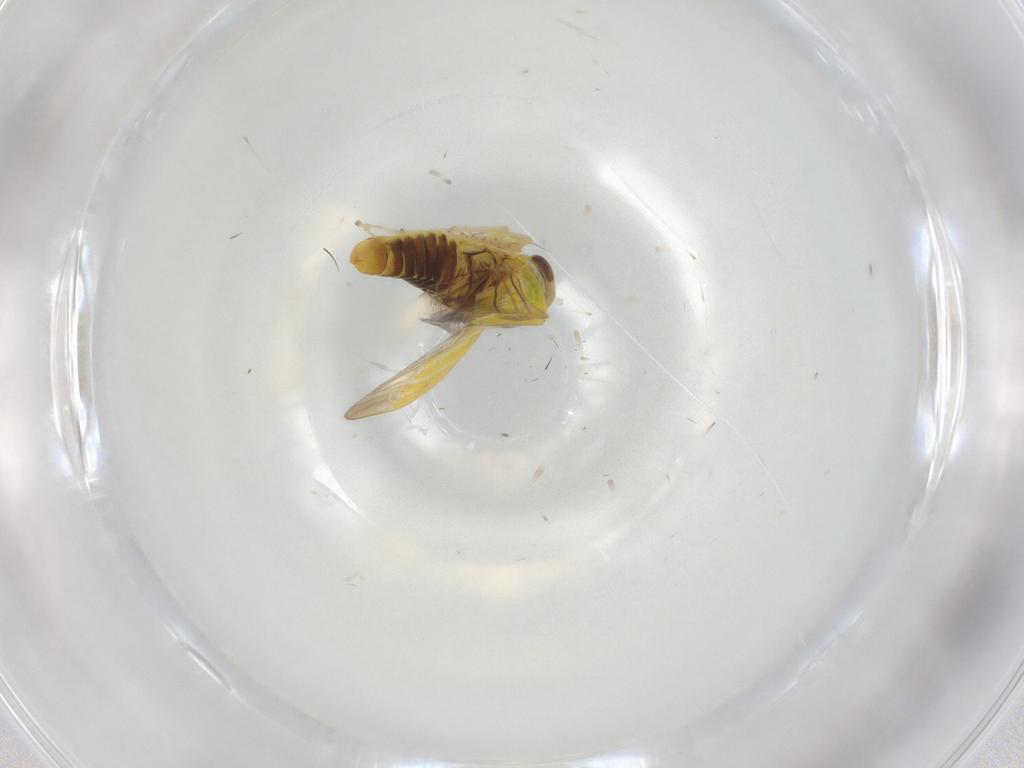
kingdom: Animalia
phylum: Arthropoda
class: Insecta
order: Hemiptera
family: Cicadellidae
